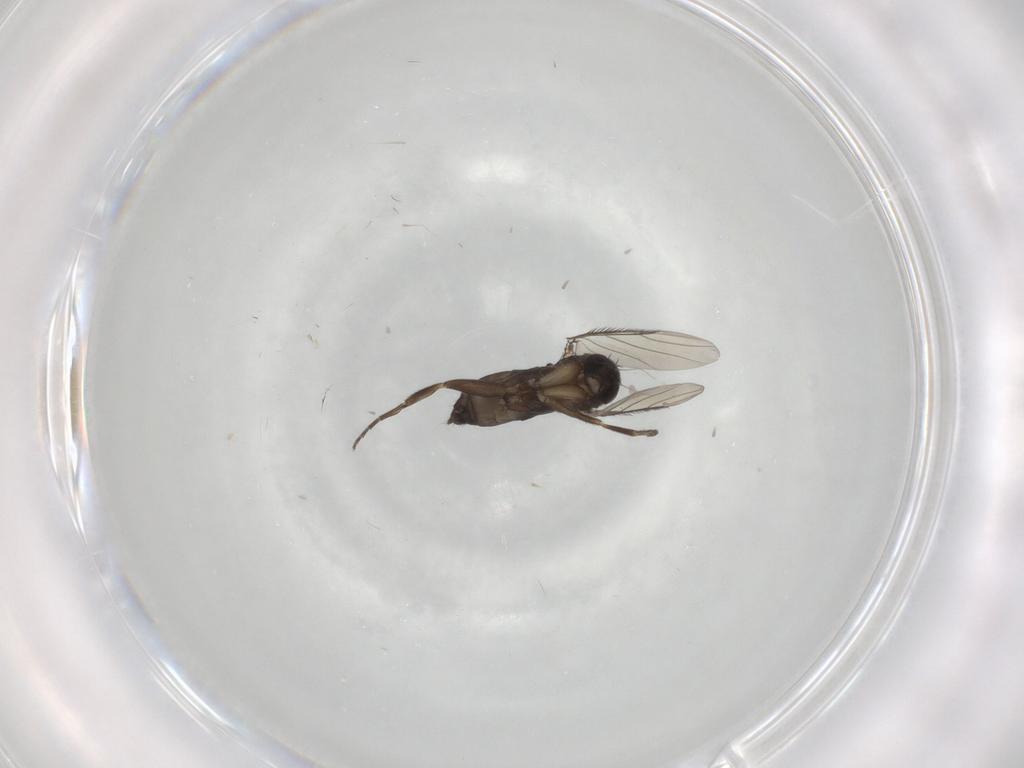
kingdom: Animalia
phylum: Arthropoda
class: Insecta
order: Diptera
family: Phoridae
